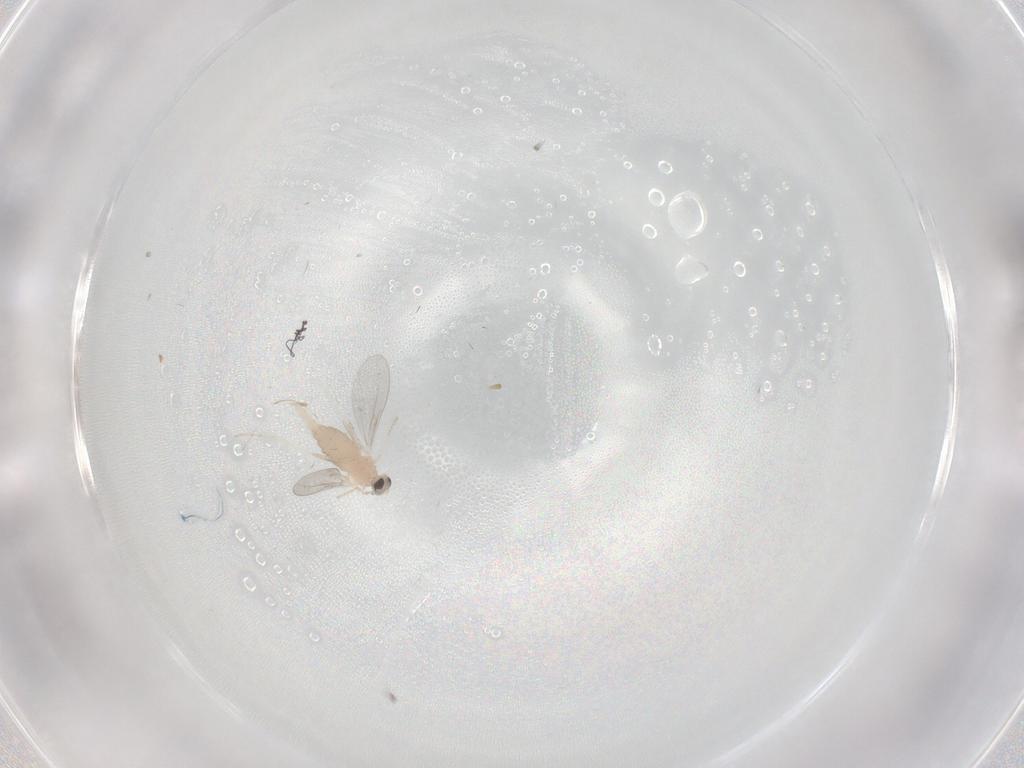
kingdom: Animalia
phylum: Arthropoda
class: Insecta
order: Diptera
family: Cecidomyiidae
